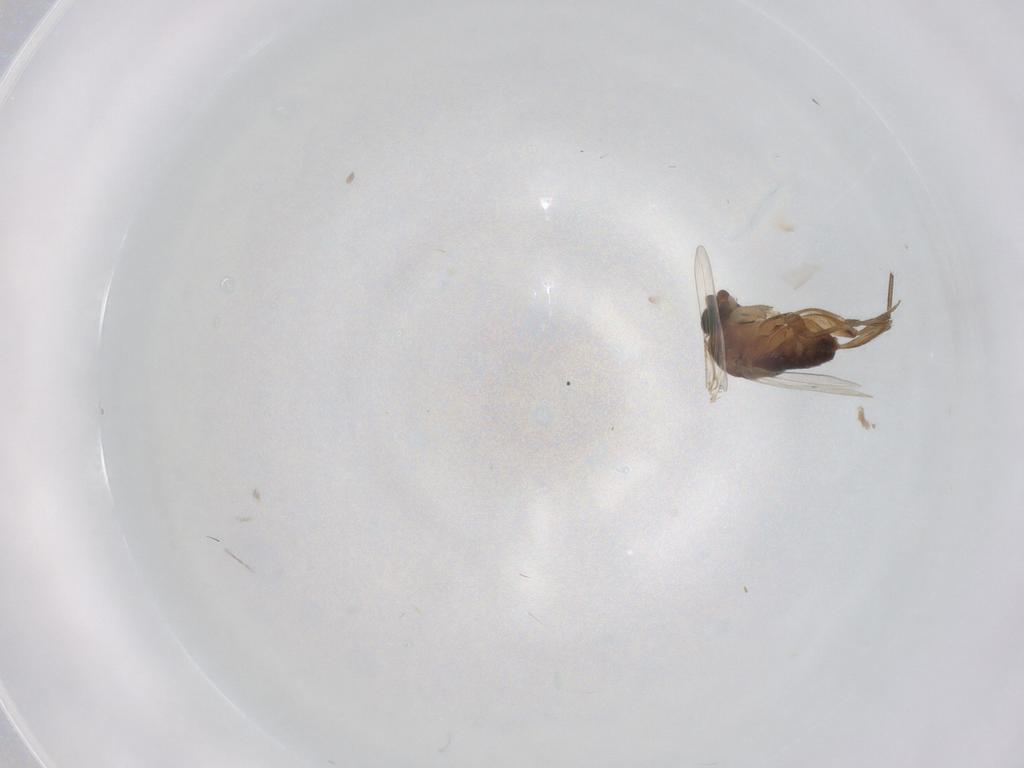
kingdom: Animalia
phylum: Arthropoda
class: Insecta
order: Diptera
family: Phoridae
